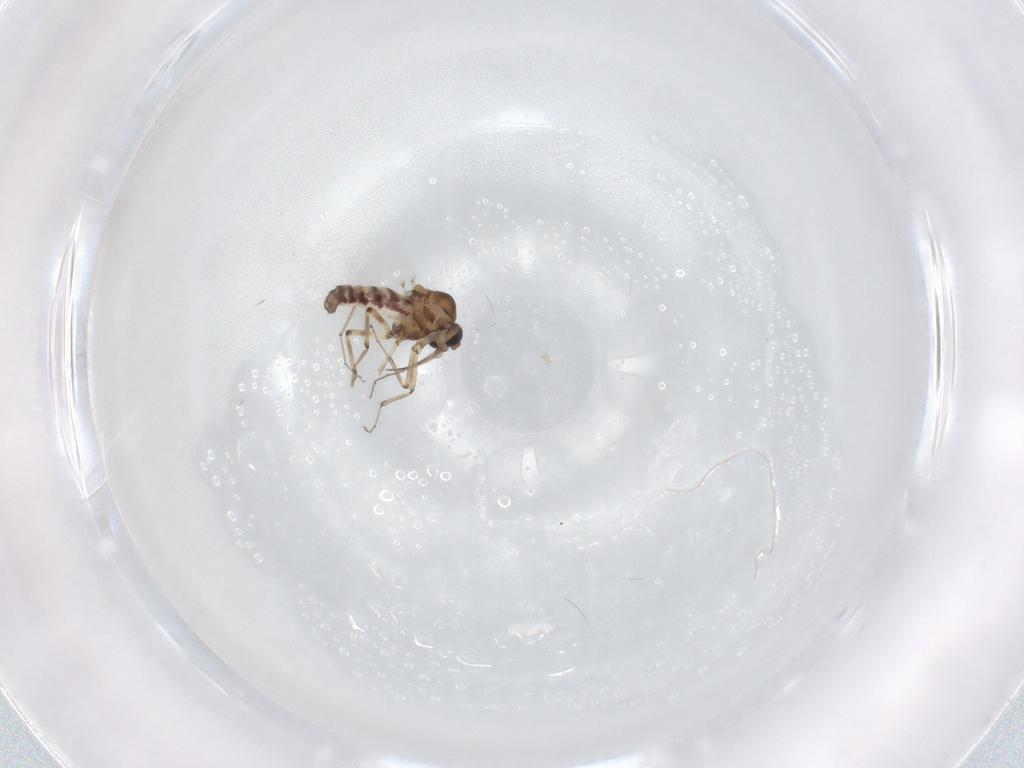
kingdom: Animalia
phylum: Arthropoda
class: Insecta
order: Diptera
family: Ceratopogonidae
